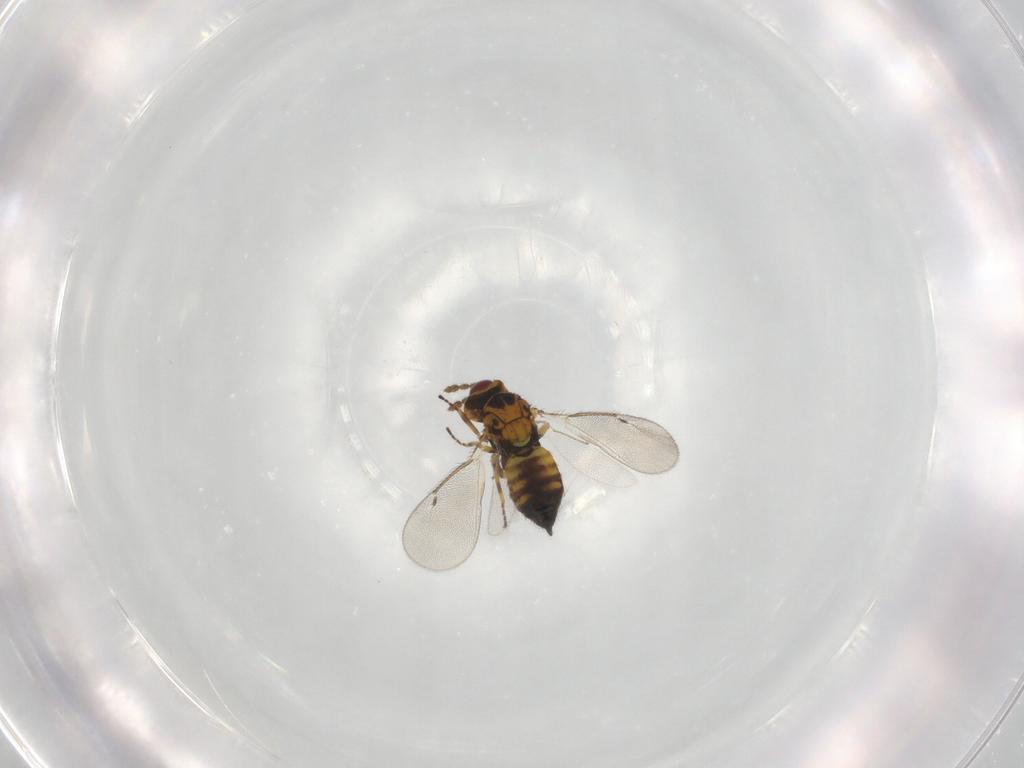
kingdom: Animalia
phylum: Arthropoda
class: Insecta
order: Hymenoptera
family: Eulophidae
